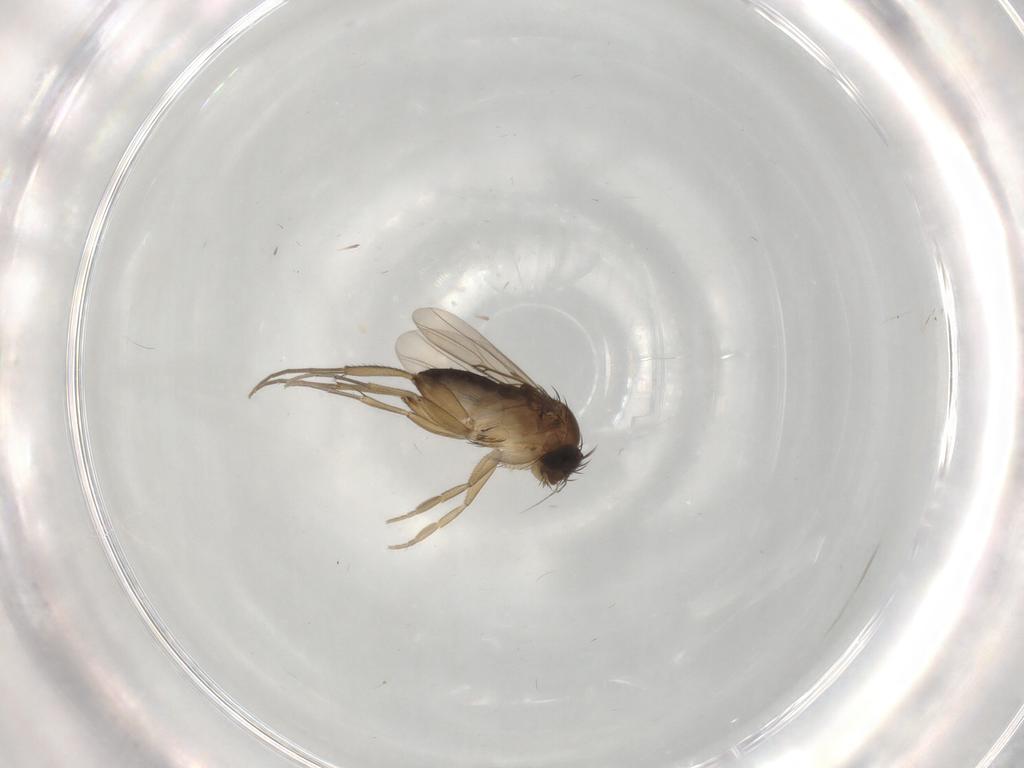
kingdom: Animalia
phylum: Arthropoda
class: Insecta
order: Diptera
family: Phoridae
